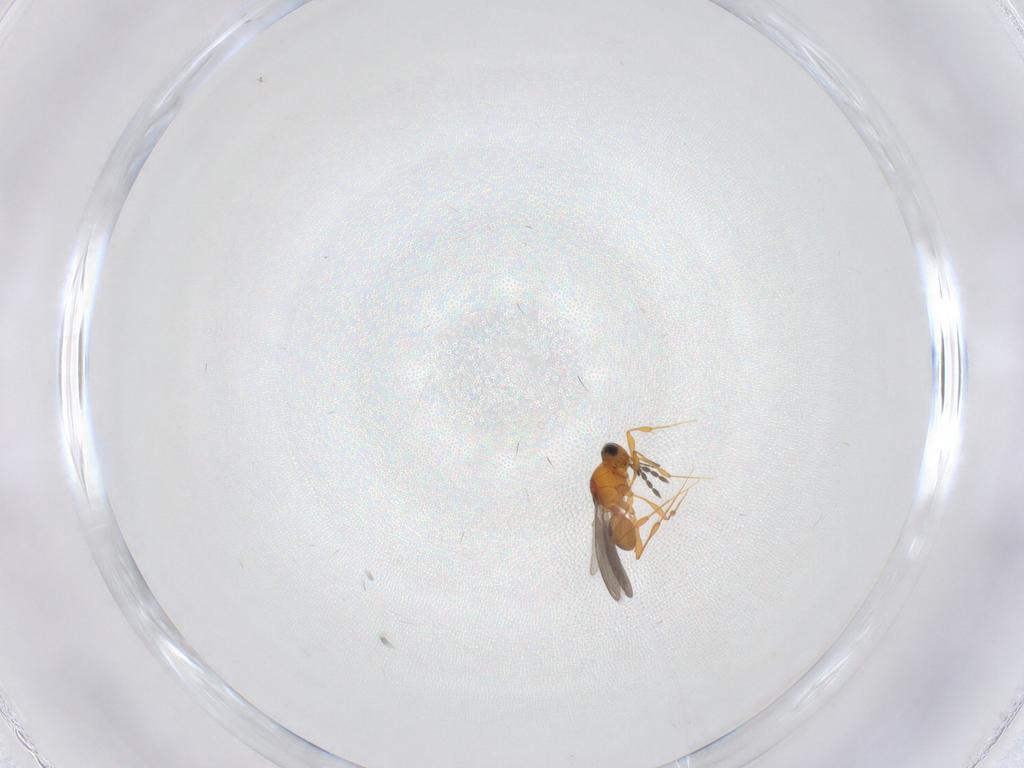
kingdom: Animalia
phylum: Arthropoda
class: Insecta
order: Hymenoptera
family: Platygastridae
